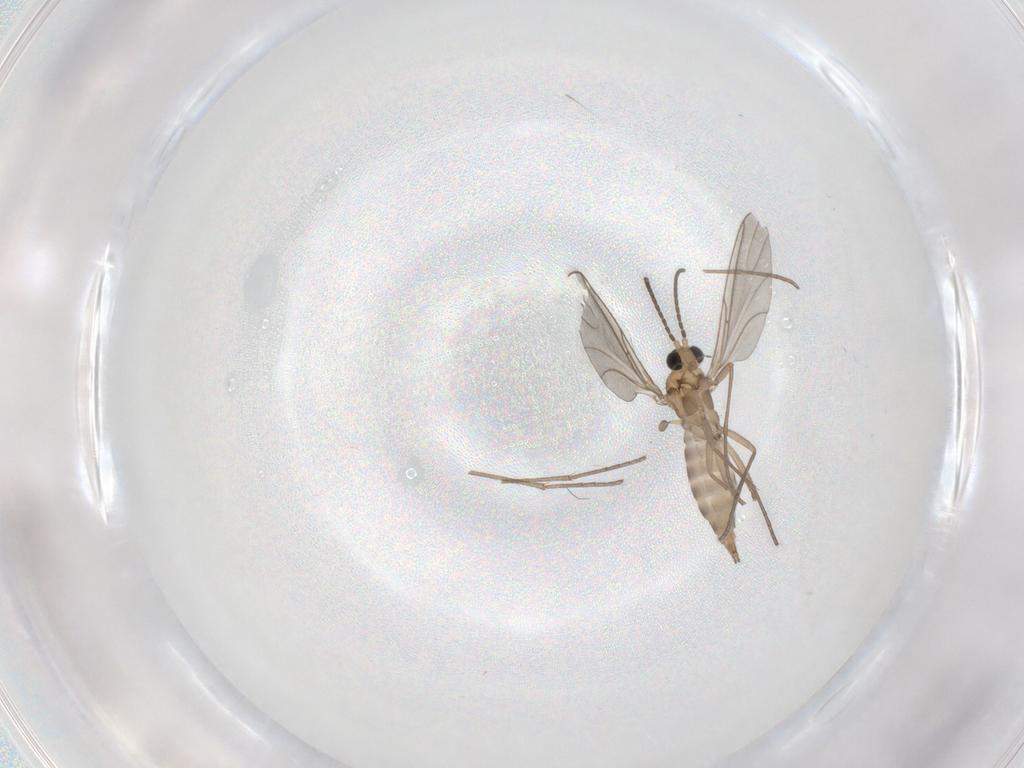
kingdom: Animalia
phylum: Arthropoda
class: Insecta
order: Diptera
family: Sciaridae
